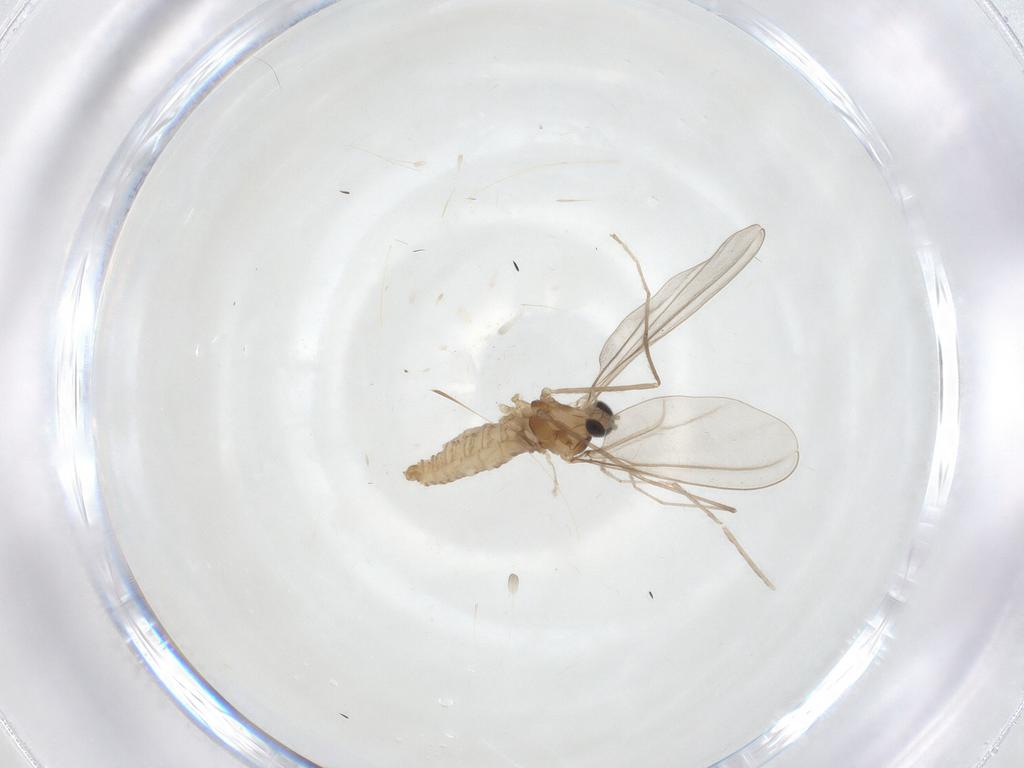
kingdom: Animalia
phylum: Arthropoda
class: Insecta
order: Diptera
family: Cecidomyiidae
